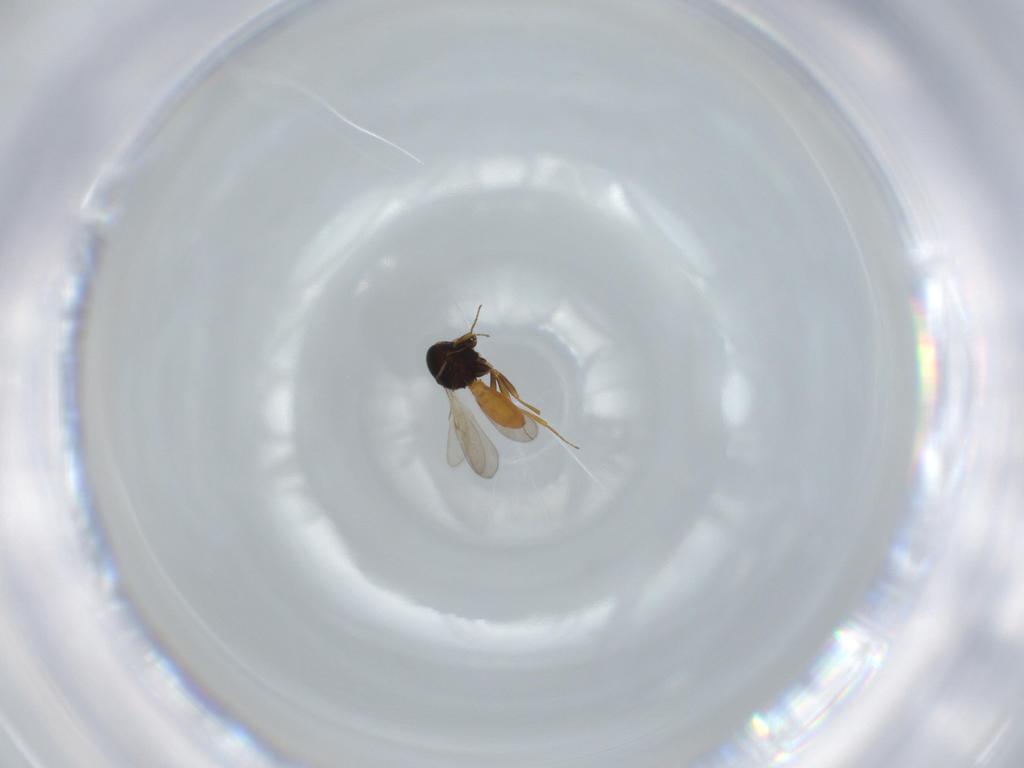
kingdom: Animalia
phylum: Arthropoda
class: Insecta
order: Hymenoptera
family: Scelionidae
